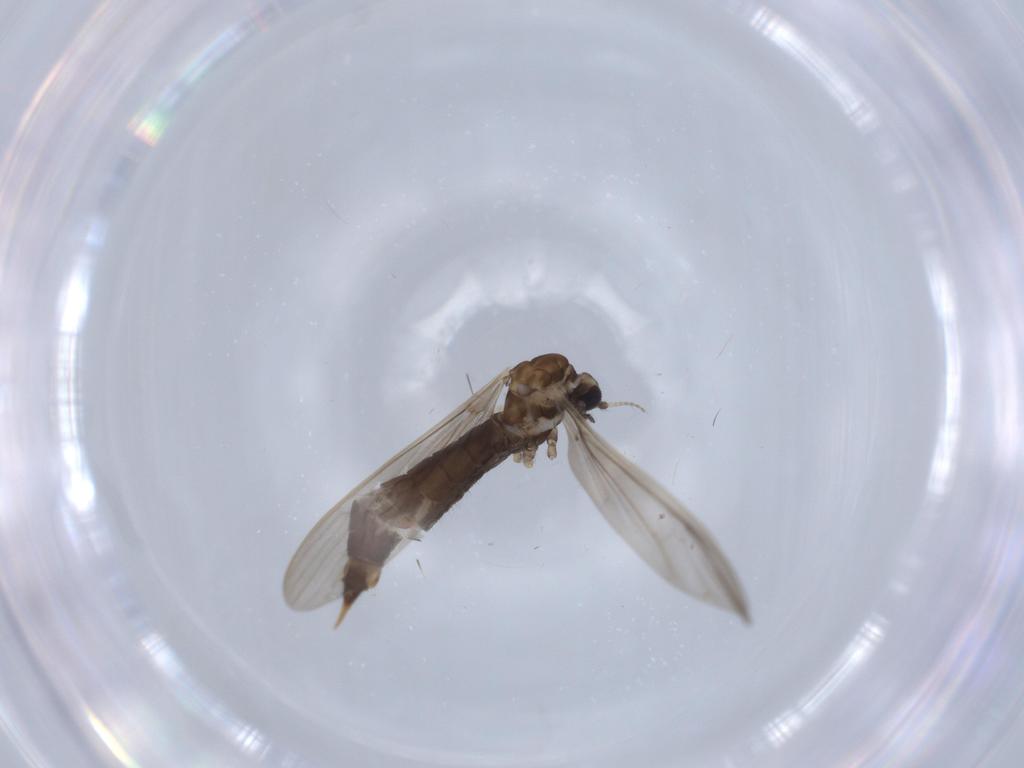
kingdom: Animalia
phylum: Arthropoda
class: Insecta
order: Diptera
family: Limoniidae
